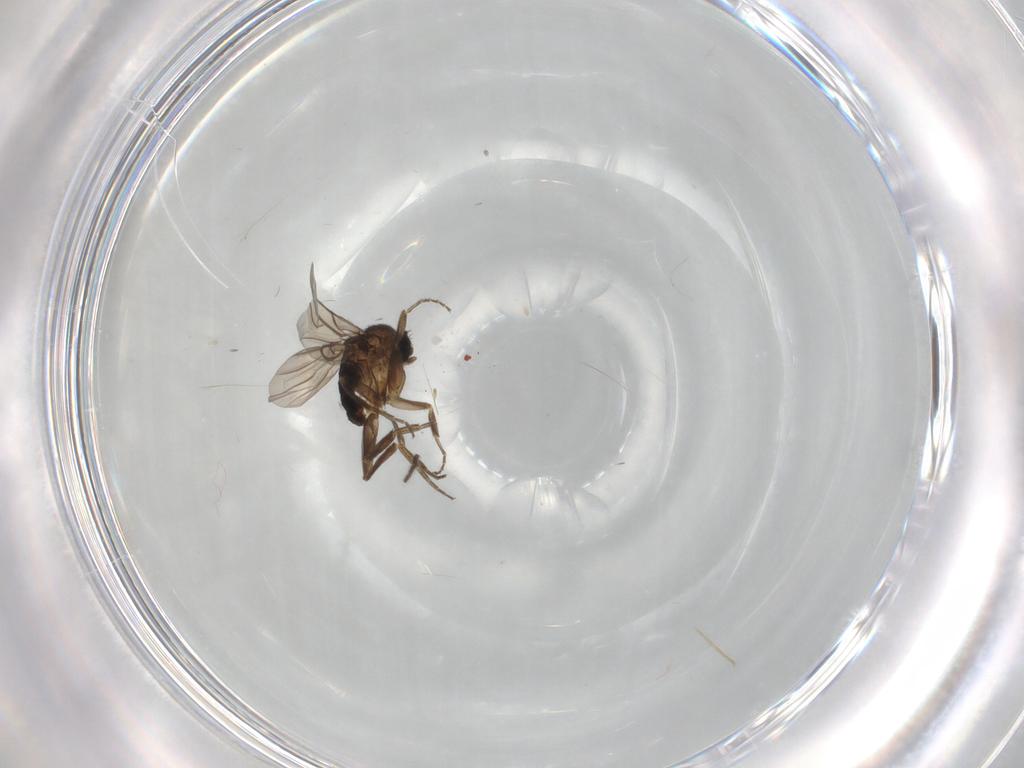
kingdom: Animalia
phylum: Arthropoda
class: Insecta
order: Diptera
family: Phoridae
